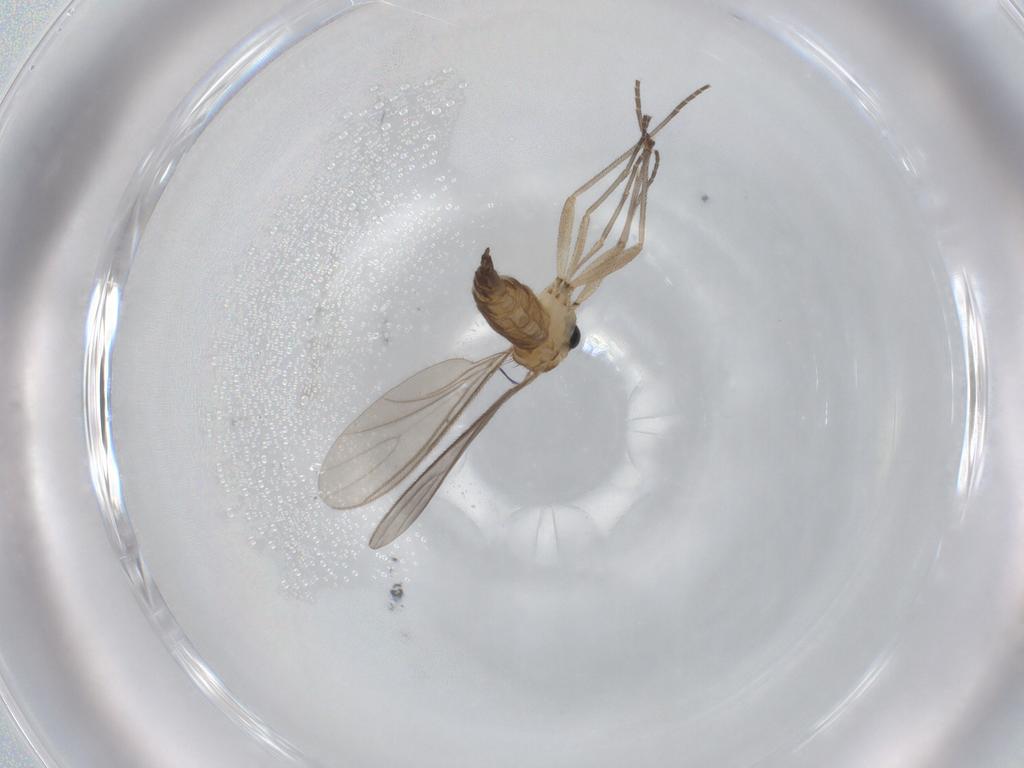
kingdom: Animalia
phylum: Arthropoda
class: Insecta
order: Diptera
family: Sciaridae
